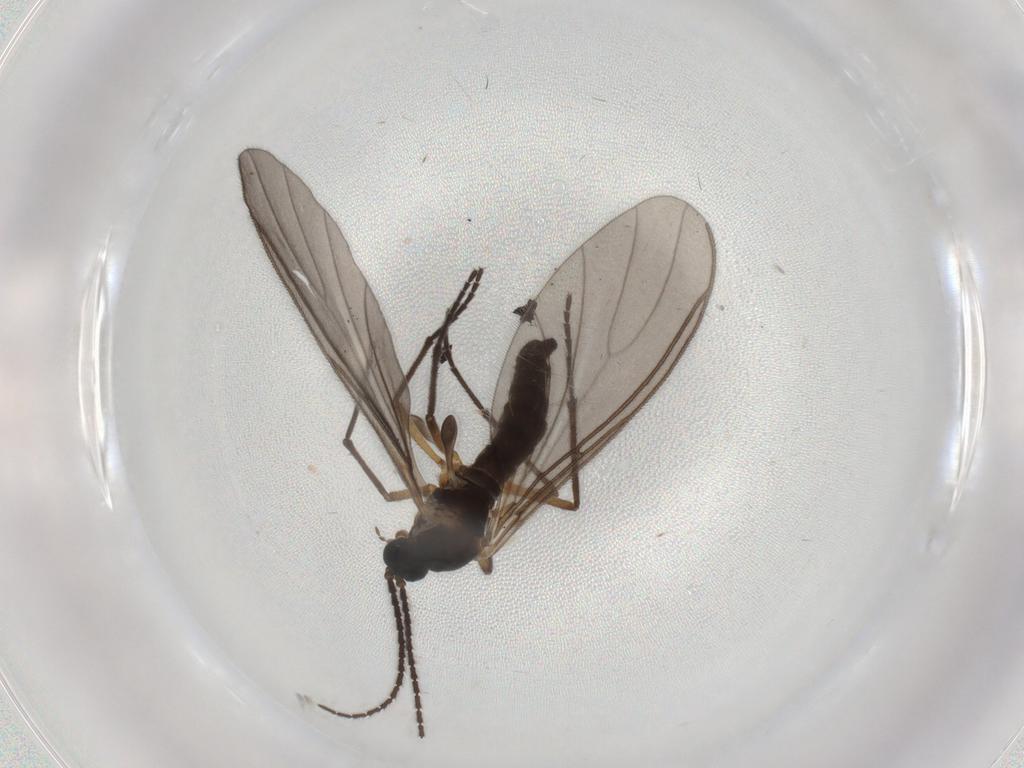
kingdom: Animalia
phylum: Arthropoda
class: Insecta
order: Diptera
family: Sciaridae
